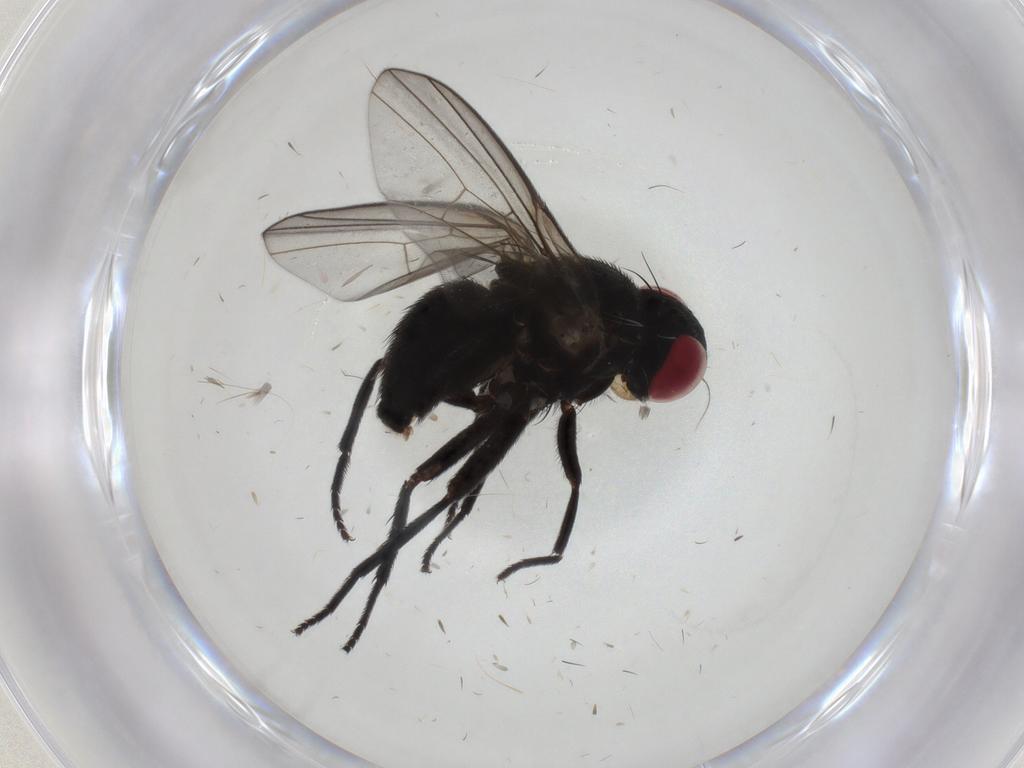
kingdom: Animalia
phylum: Arthropoda
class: Insecta
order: Diptera
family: Agromyzidae
